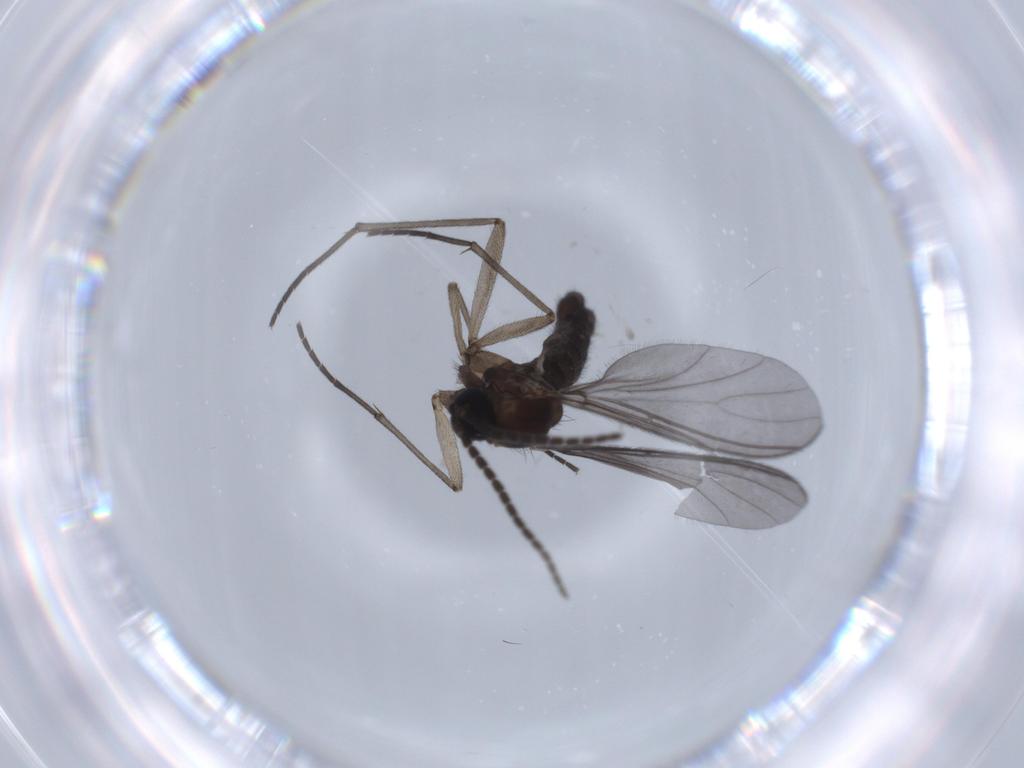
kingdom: Animalia
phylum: Arthropoda
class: Insecta
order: Diptera
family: Sciaridae
